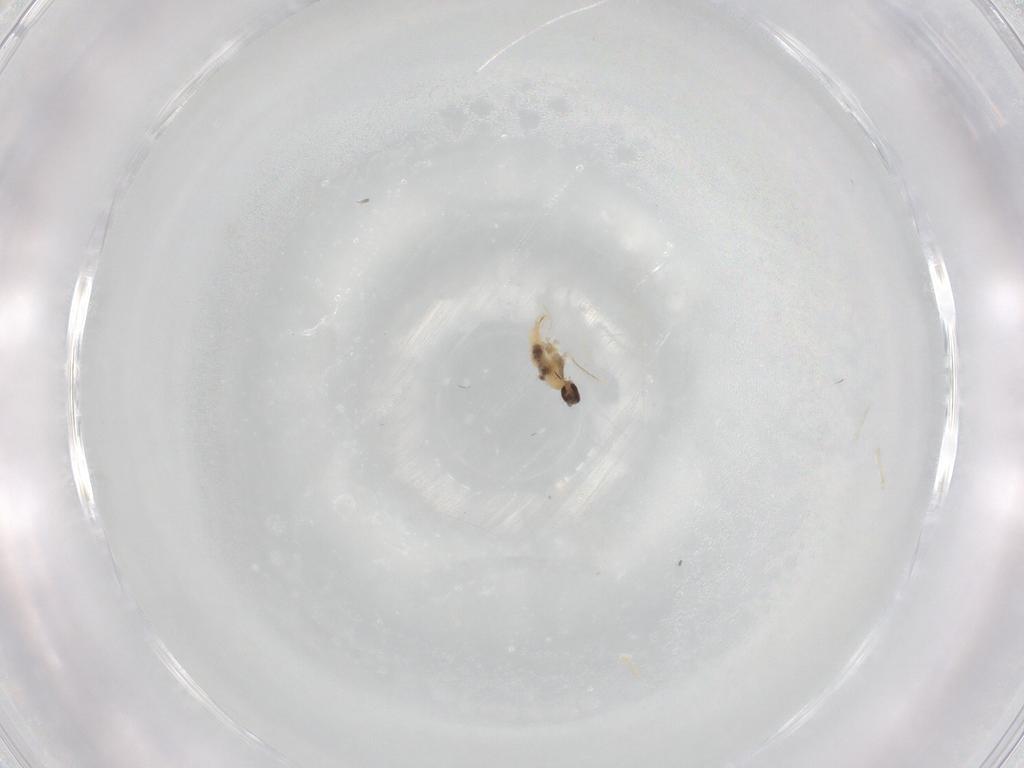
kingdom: Animalia
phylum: Arthropoda
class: Insecta
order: Diptera
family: Cecidomyiidae
